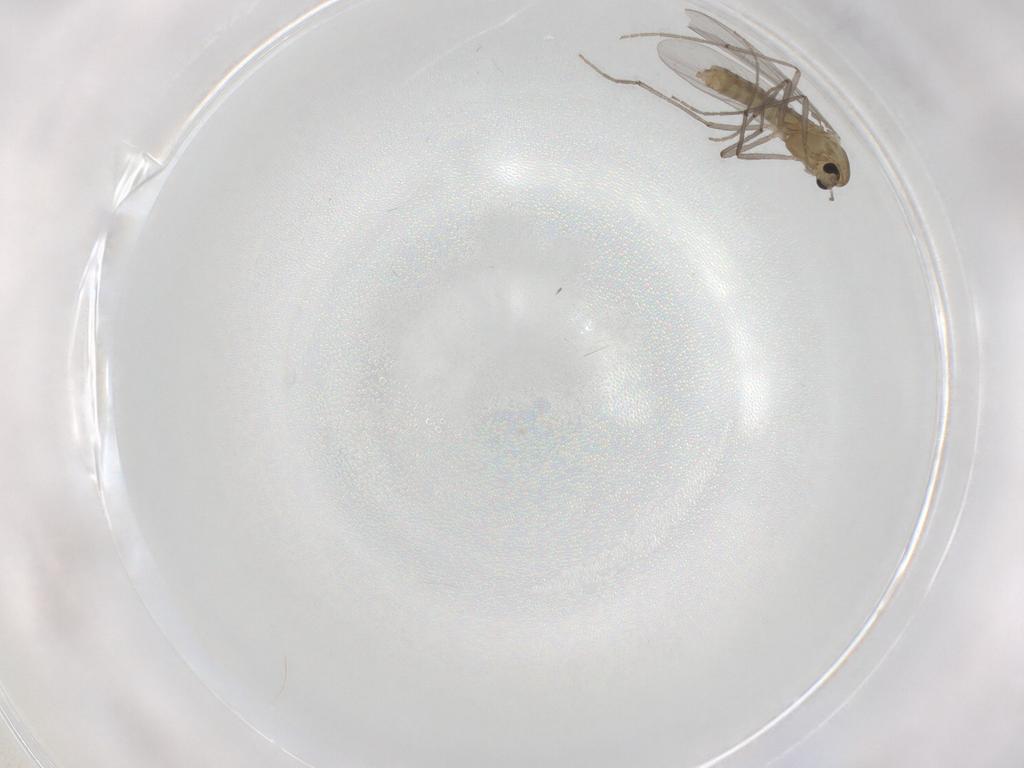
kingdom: Animalia
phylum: Arthropoda
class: Insecta
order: Diptera
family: Chironomidae
